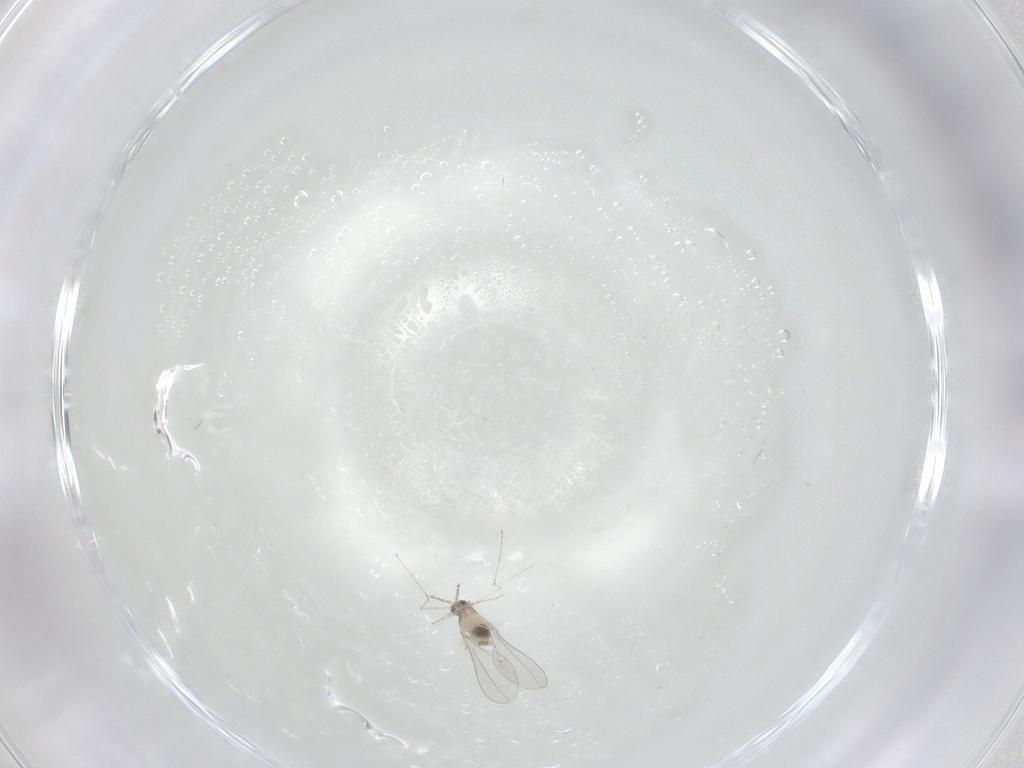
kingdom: Animalia
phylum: Arthropoda
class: Insecta
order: Diptera
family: Cecidomyiidae
